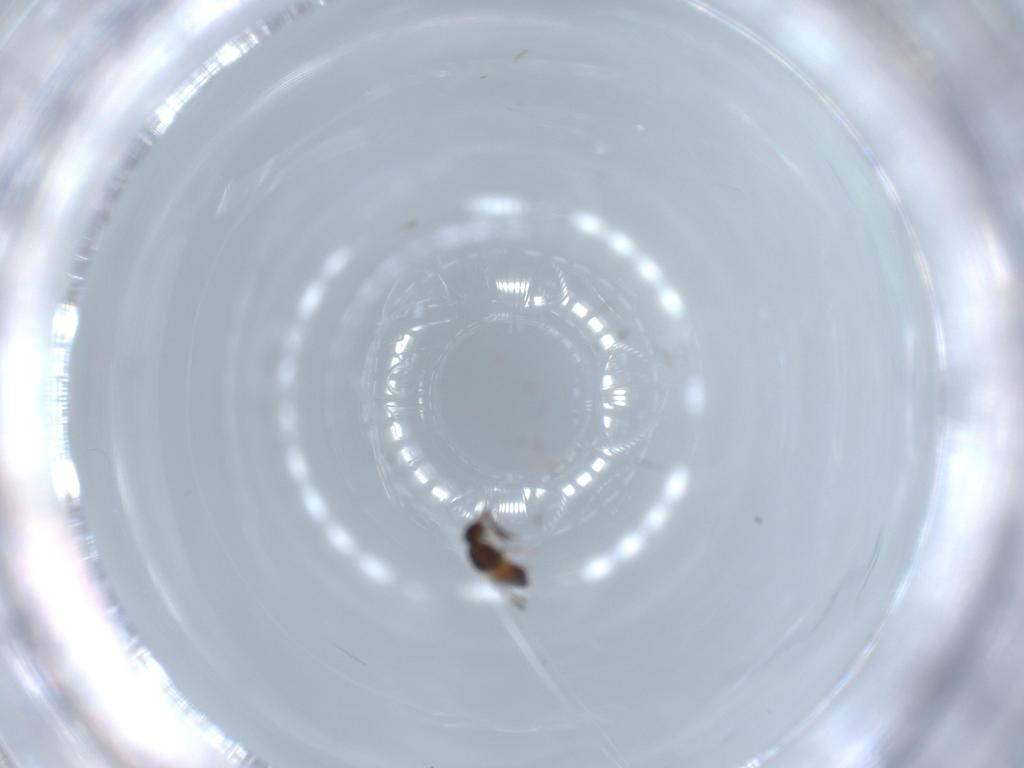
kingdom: Animalia
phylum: Arthropoda
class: Insecta
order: Hymenoptera
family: Ceraphronidae
